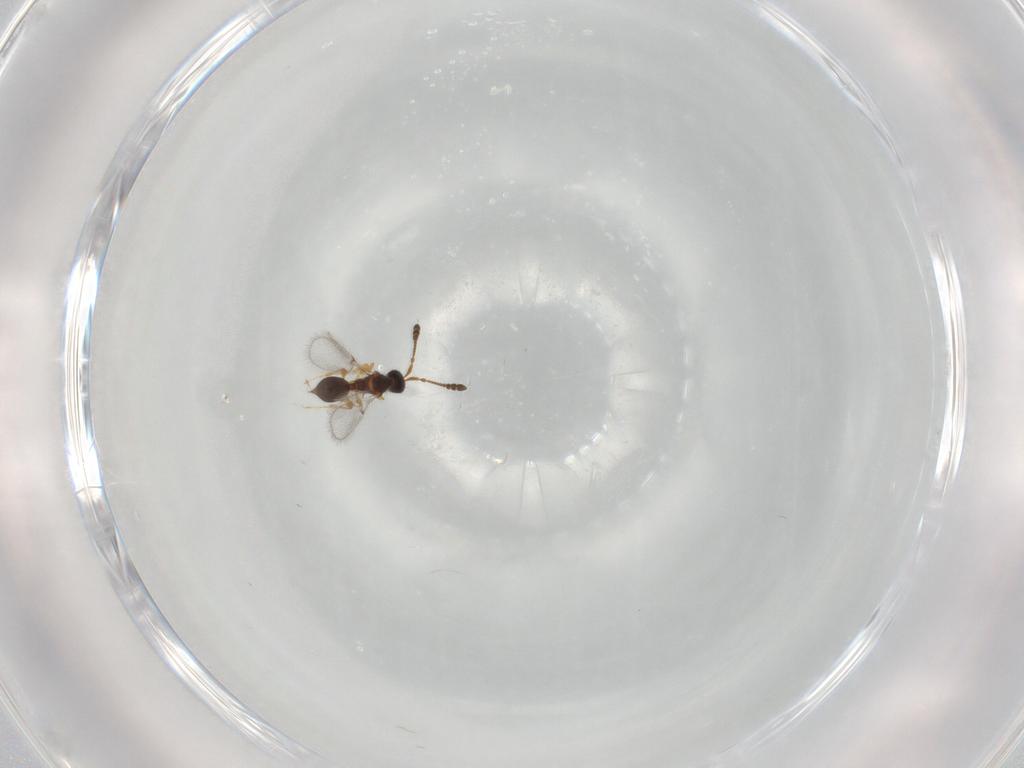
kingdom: Animalia
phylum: Arthropoda
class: Insecta
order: Hymenoptera
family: Diapriidae
